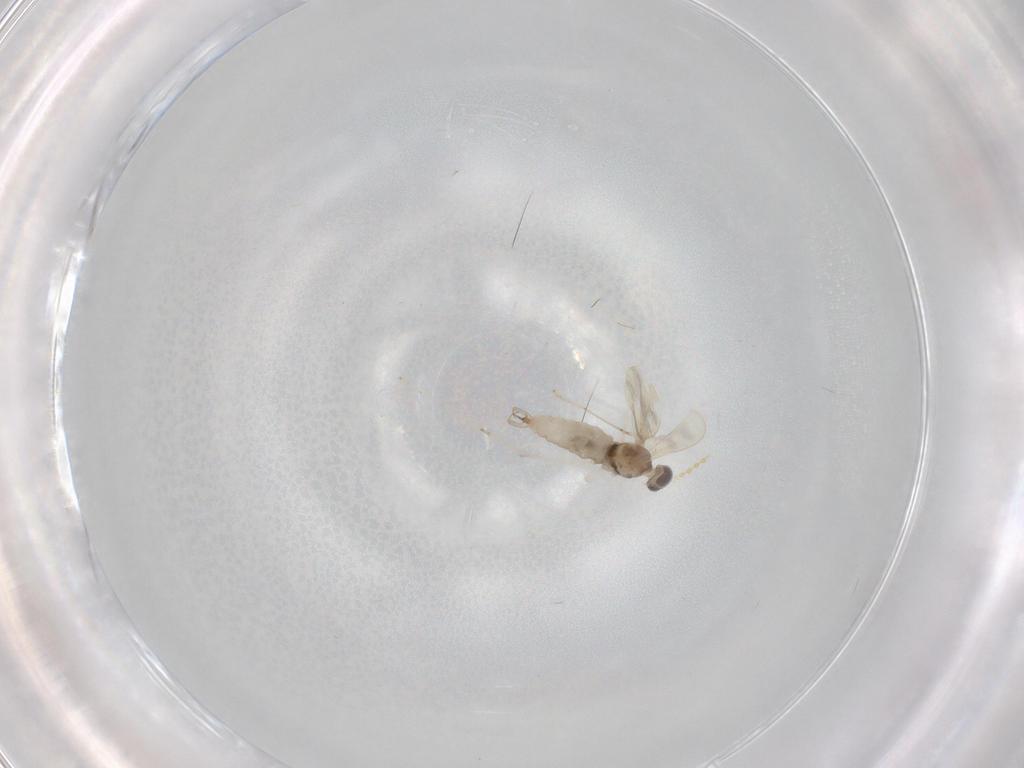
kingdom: Animalia
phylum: Arthropoda
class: Insecta
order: Diptera
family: Cecidomyiidae
